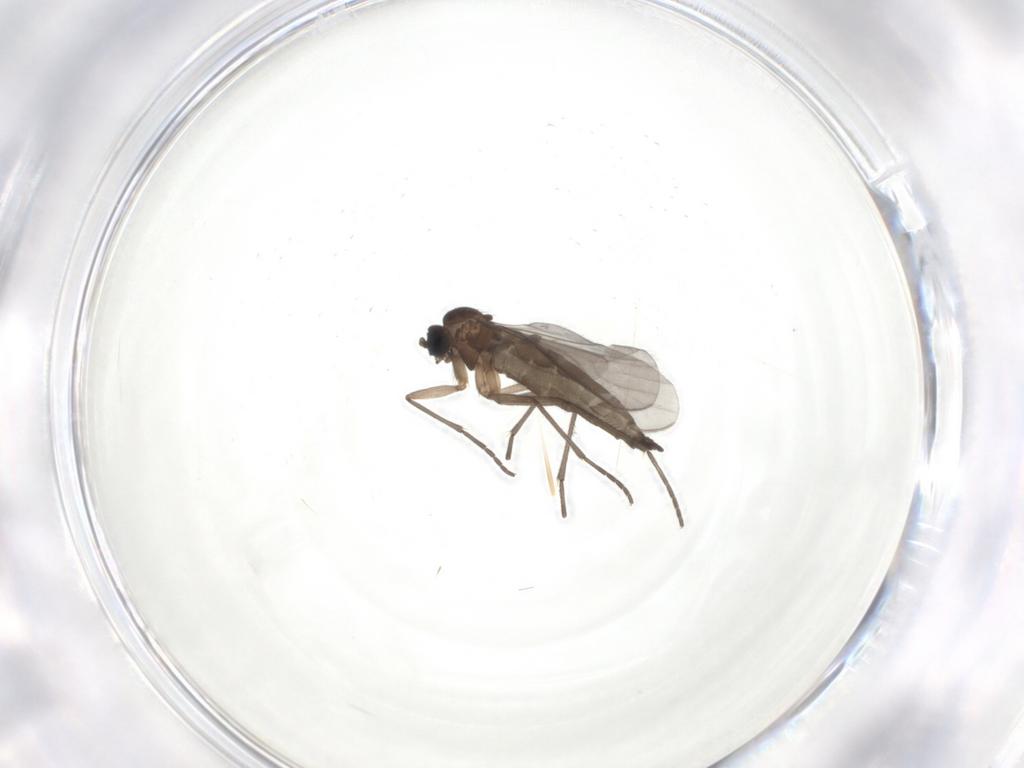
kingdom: Animalia
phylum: Arthropoda
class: Insecta
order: Diptera
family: Sciaridae
